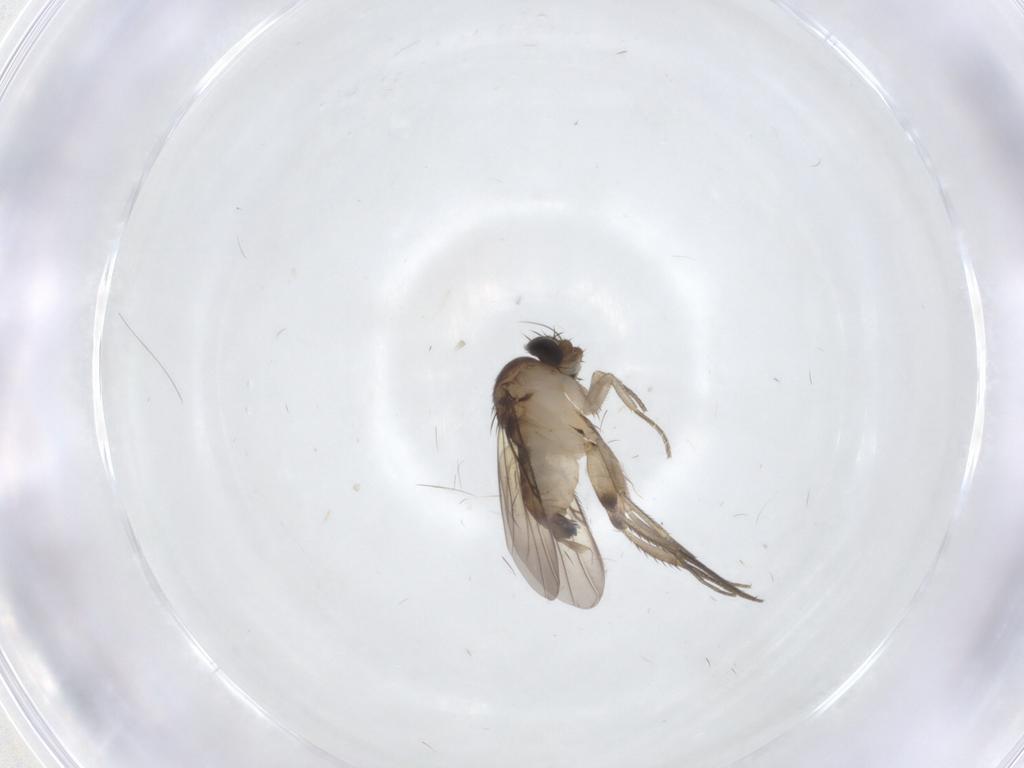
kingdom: Animalia
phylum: Arthropoda
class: Insecta
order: Diptera
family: Phoridae
